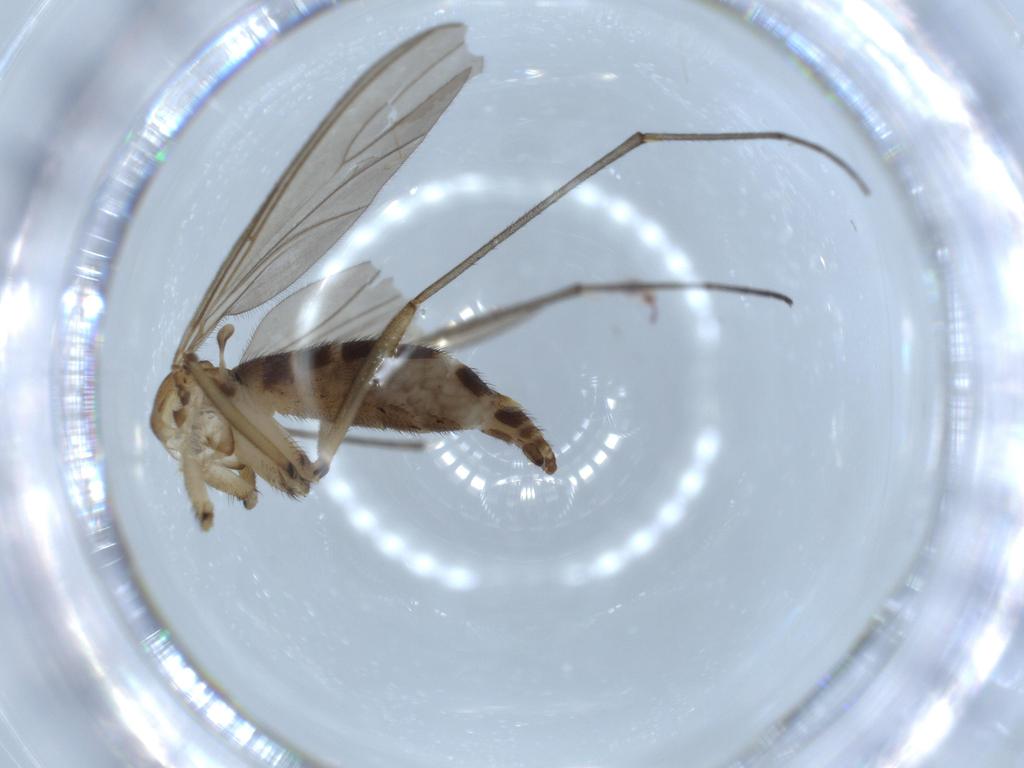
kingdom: Animalia
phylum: Arthropoda
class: Insecta
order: Diptera
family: Sciaridae
